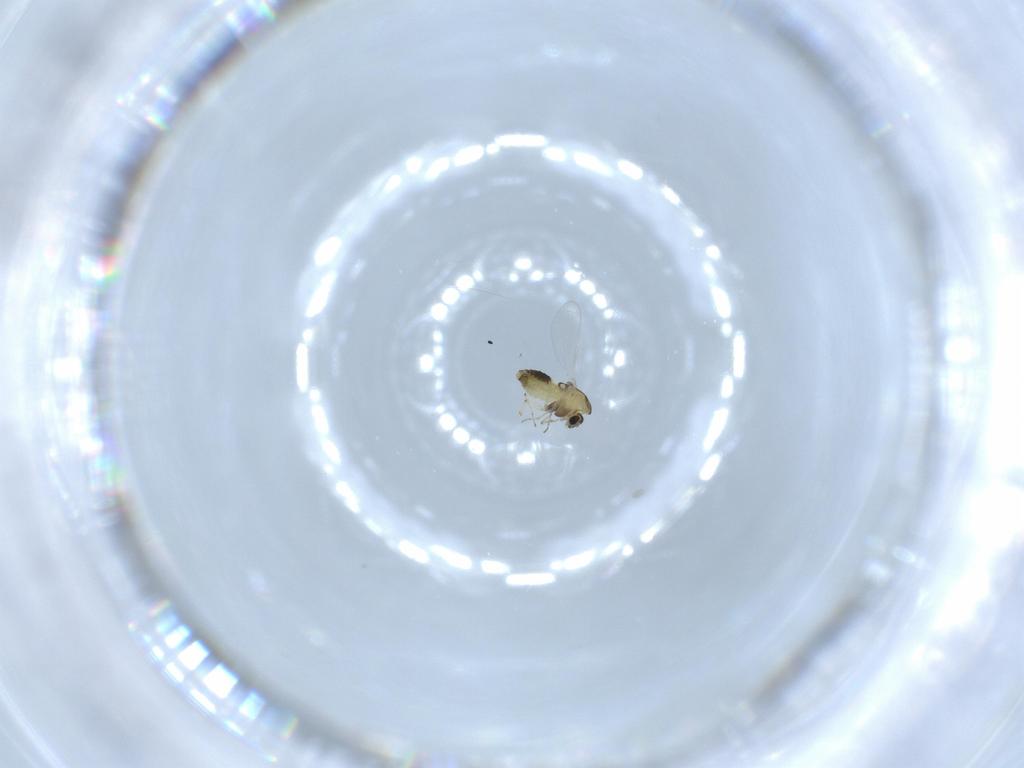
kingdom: Animalia
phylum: Arthropoda
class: Insecta
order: Diptera
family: Chironomidae
